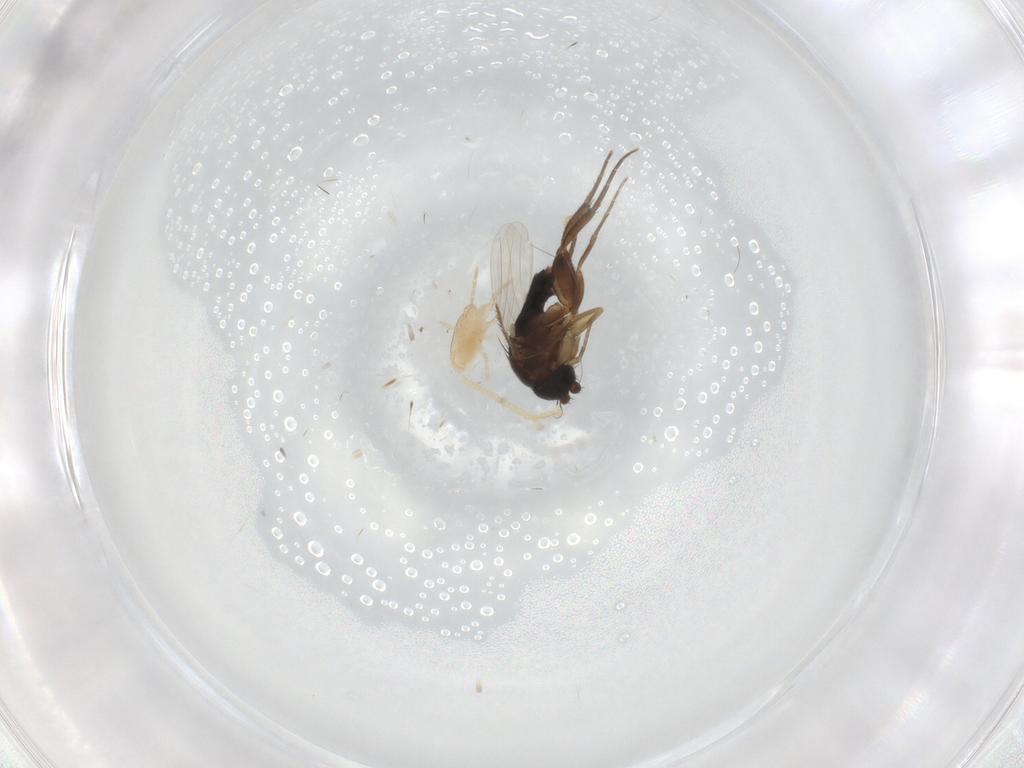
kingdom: Animalia
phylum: Arthropoda
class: Insecta
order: Diptera
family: Phoridae
